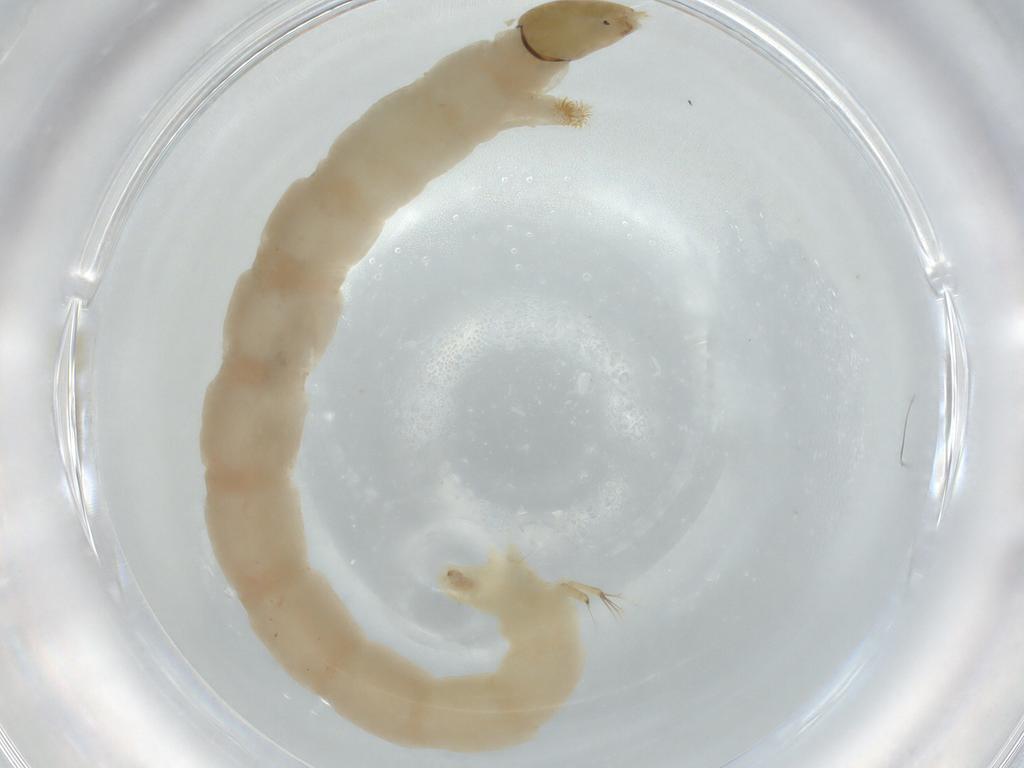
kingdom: Animalia
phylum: Arthropoda
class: Insecta
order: Diptera
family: Chironomidae
